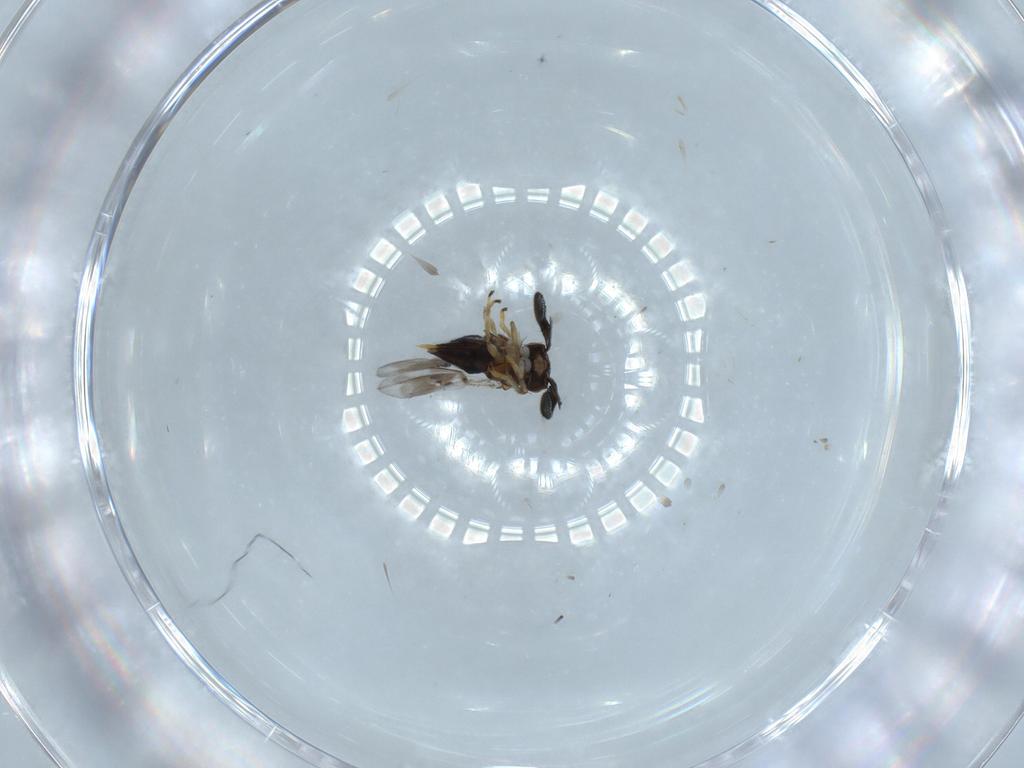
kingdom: Animalia
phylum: Arthropoda
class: Insecta
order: Hymenoptera
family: Aphelinidae
